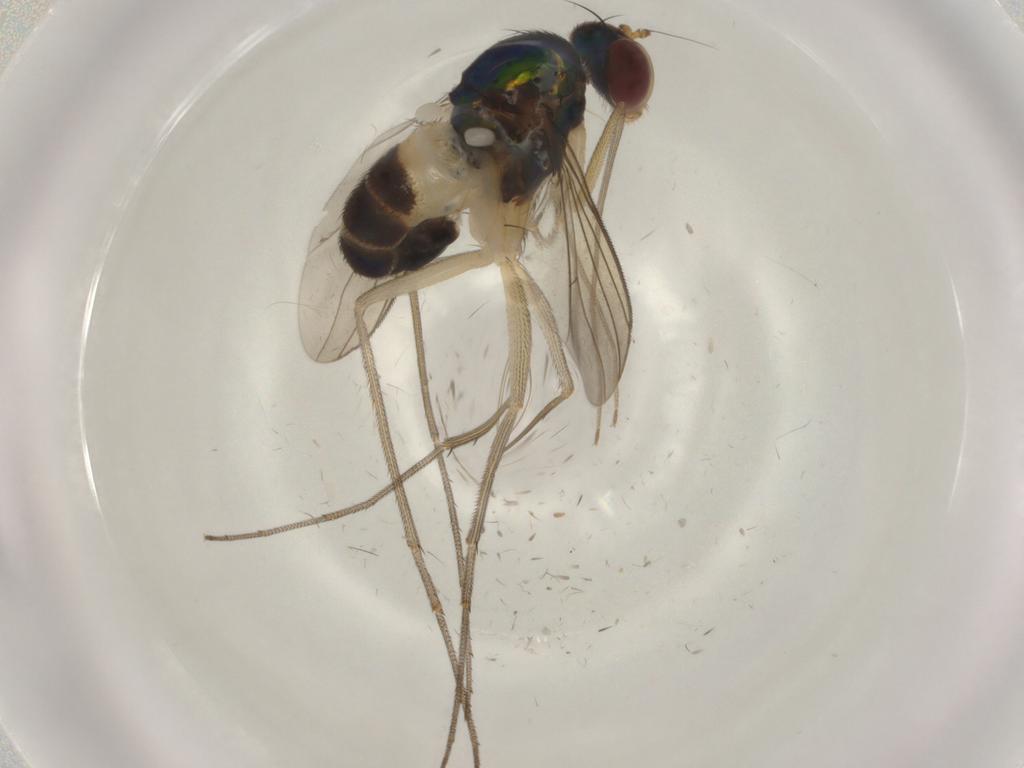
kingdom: Animalia
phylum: Arthropoda
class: Insecta
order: Diptera
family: Dolichopodidae
